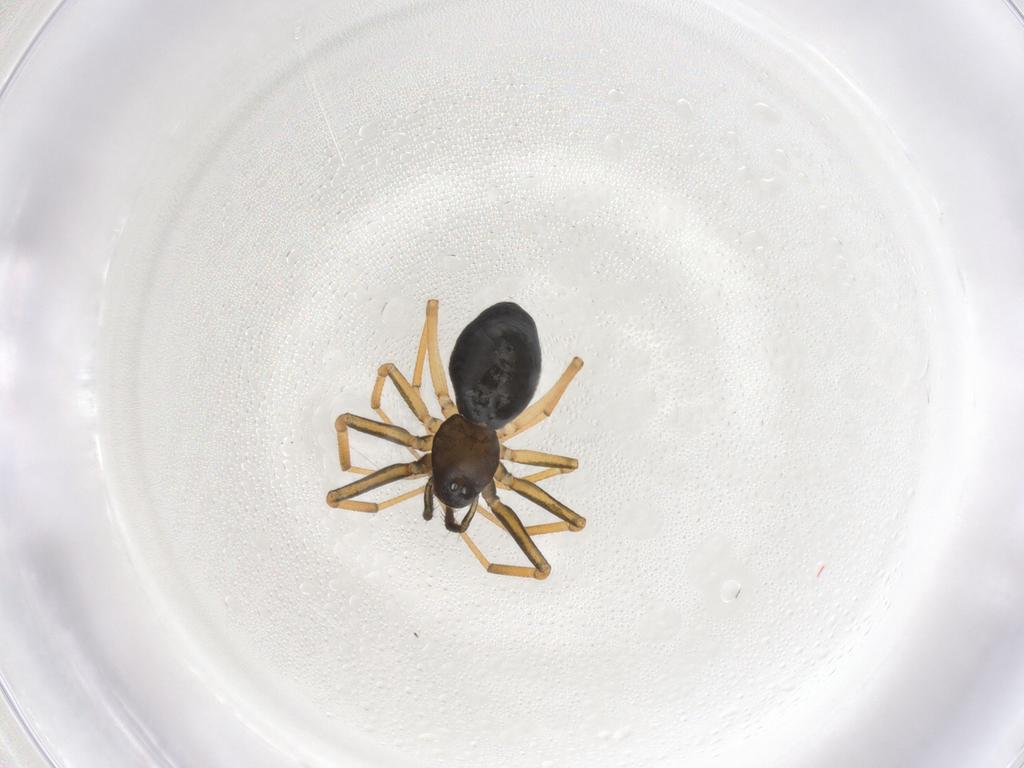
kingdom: Animalia
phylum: Arthropoda
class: Arachnida
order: Araneae
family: Linyphiidae
